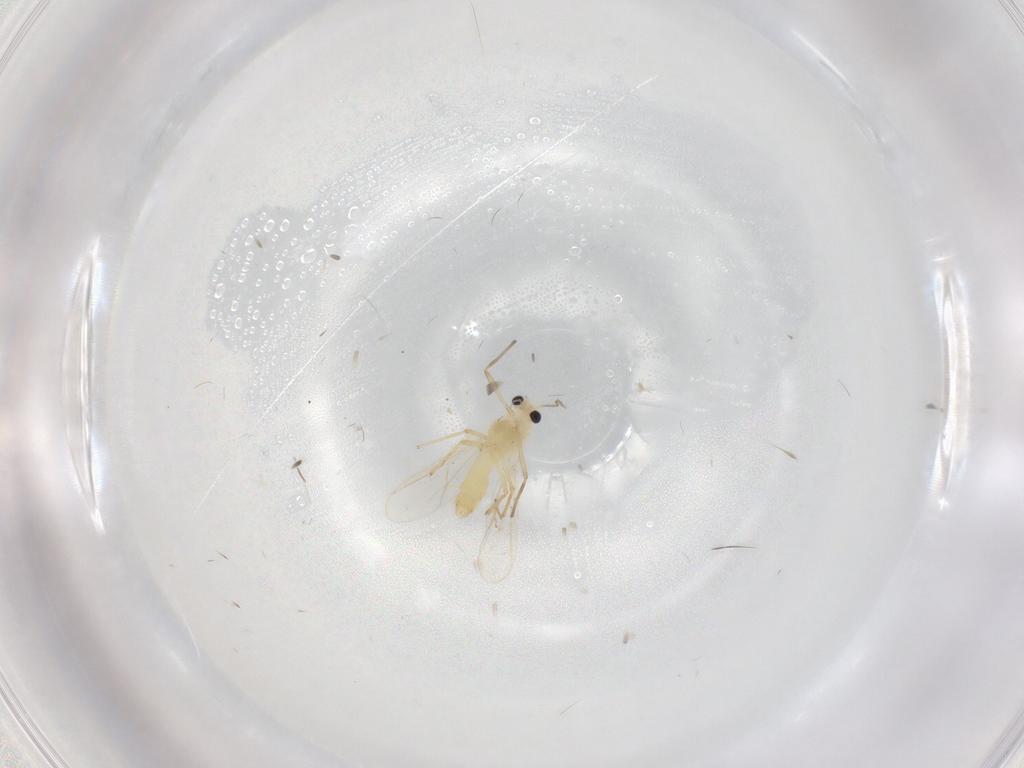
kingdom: Animalia
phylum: Arthropoda
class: Insecta
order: Diptera
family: Chironomidae
